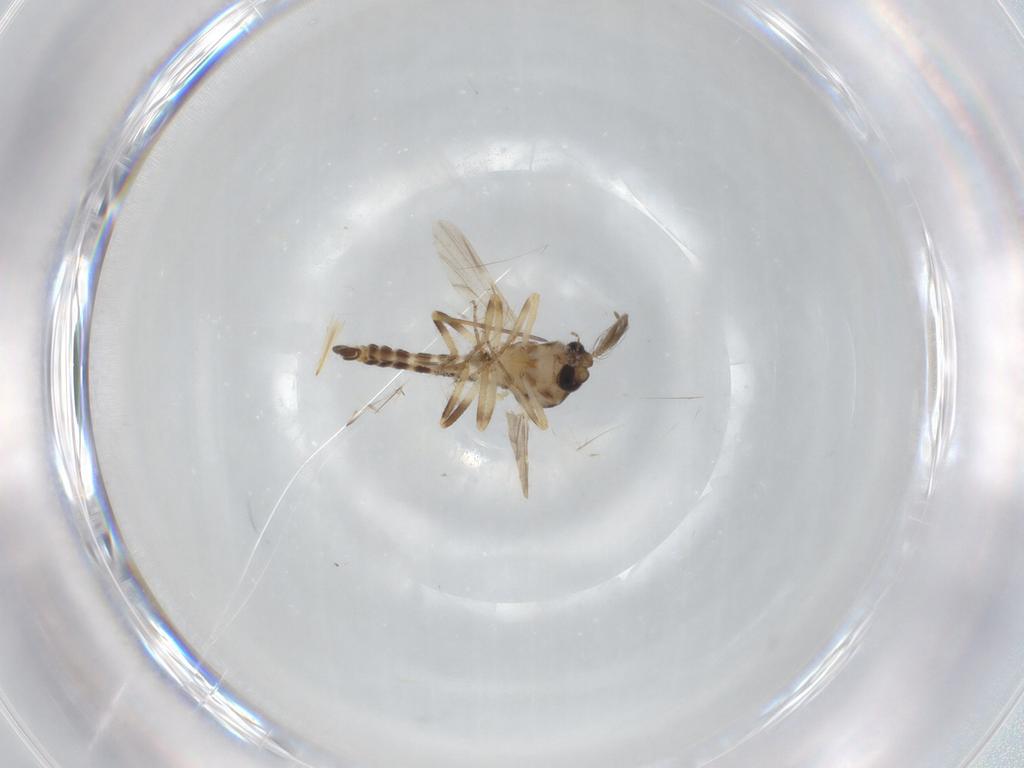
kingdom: Animalia
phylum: Arthropoda
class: Insecta
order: Diptera
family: Ceratopogonidae
